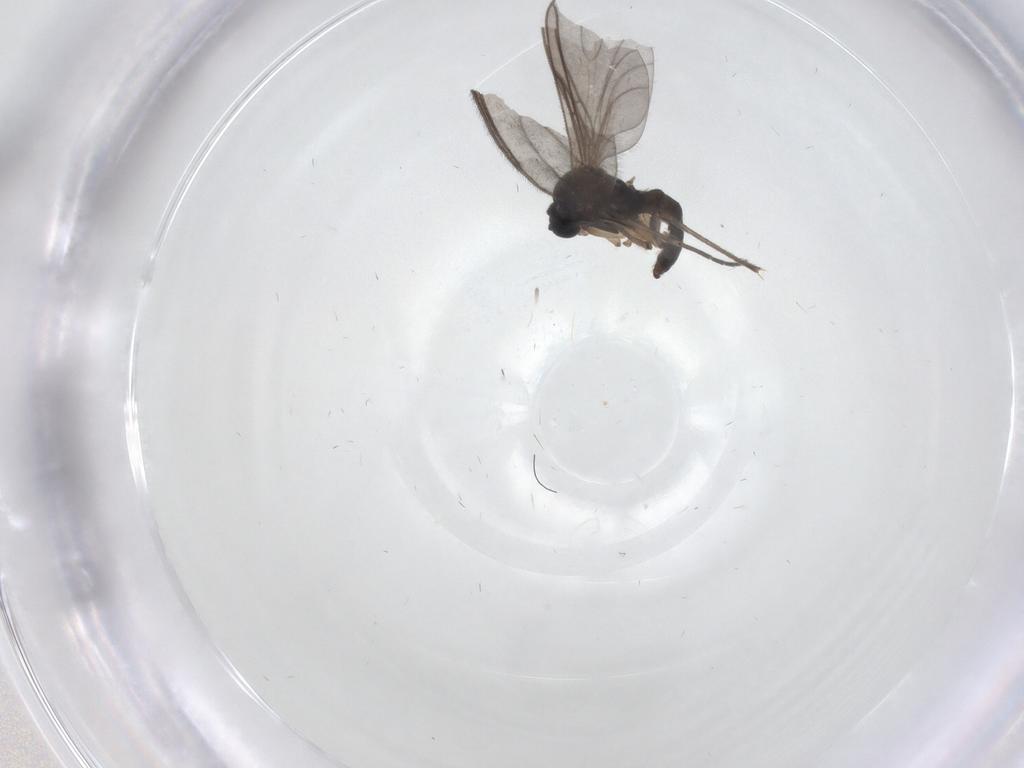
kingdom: Animalia
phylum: Arthropoda
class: Insecta
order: Diptera
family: Sciaridae
